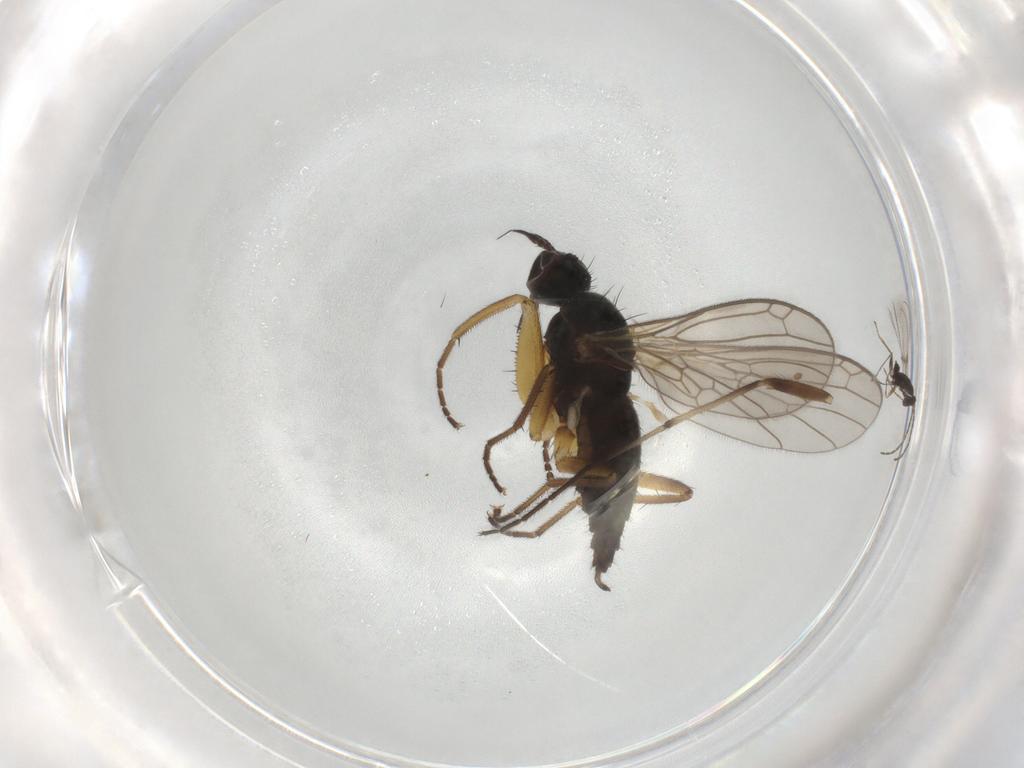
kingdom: Animalia
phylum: Arthropoda
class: Insecta
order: Diptera
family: Empididae
